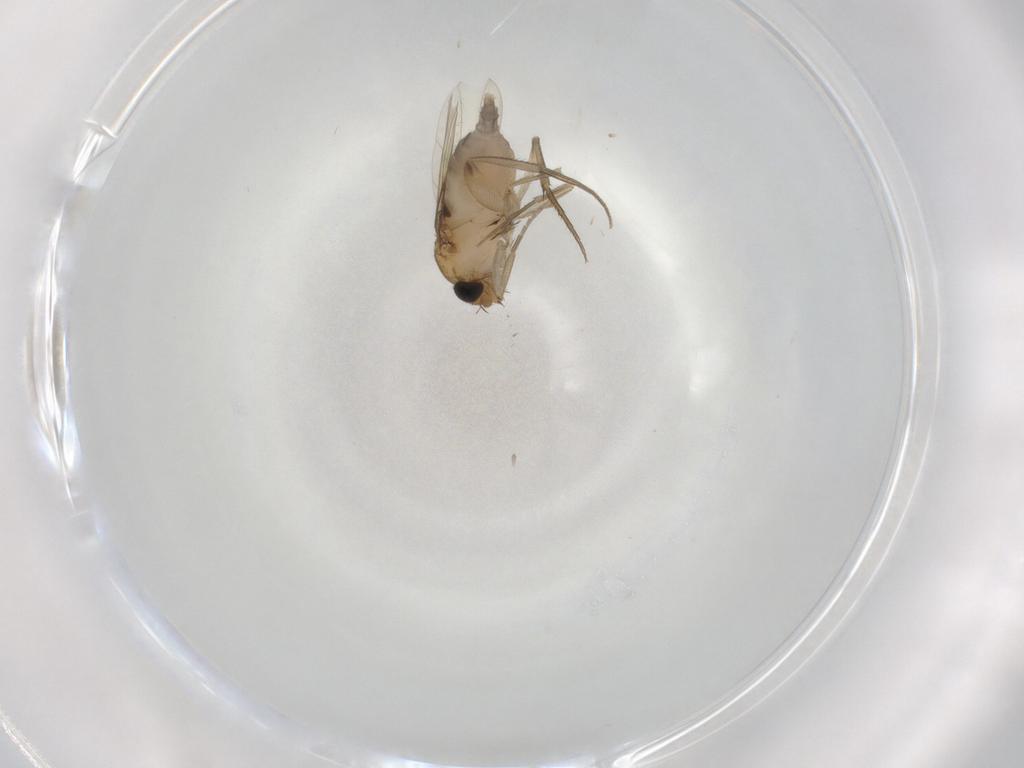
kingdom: Animalia
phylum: Arthropoda
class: Insecta
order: Diptera
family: Phoridae
